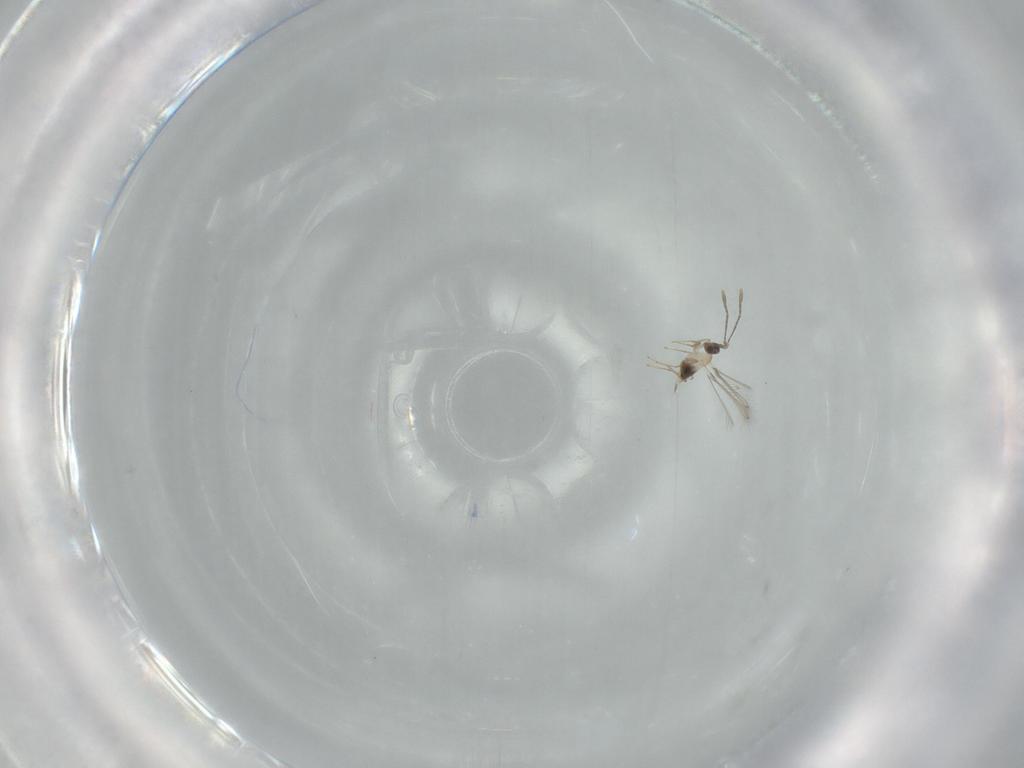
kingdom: Animalia
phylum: Arthropoda
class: Insecta
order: Hymenoptera
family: Mymaridae
